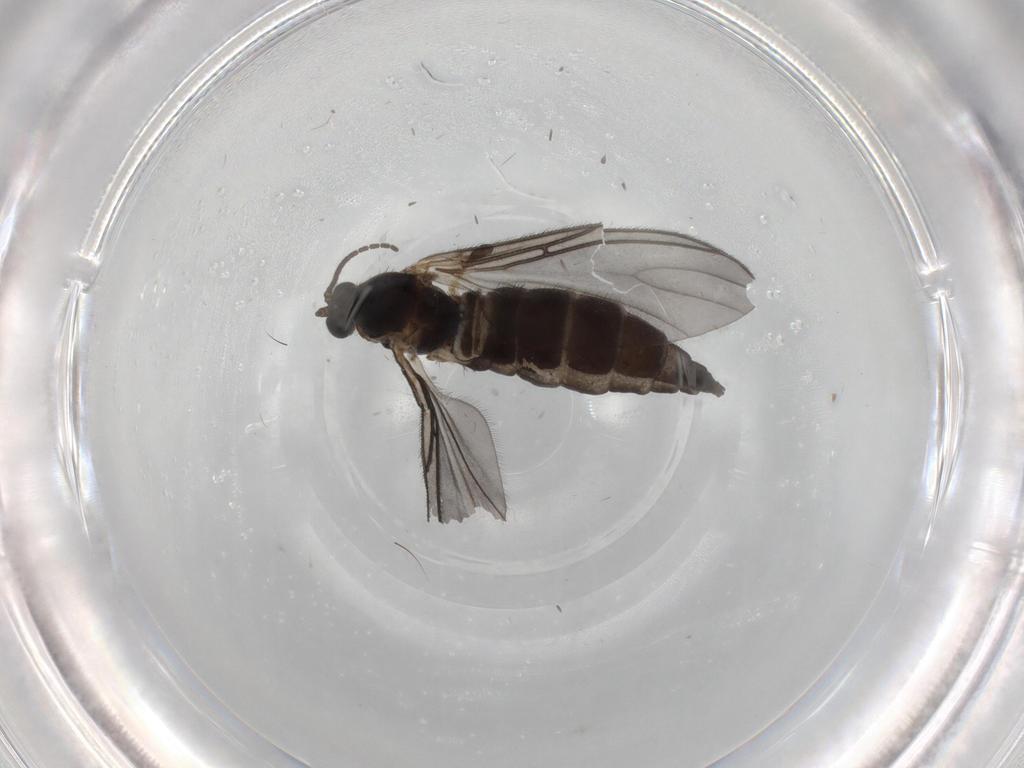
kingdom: Animalia
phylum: Arthropoda
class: Insecta
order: Diptera
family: Sciaridae
